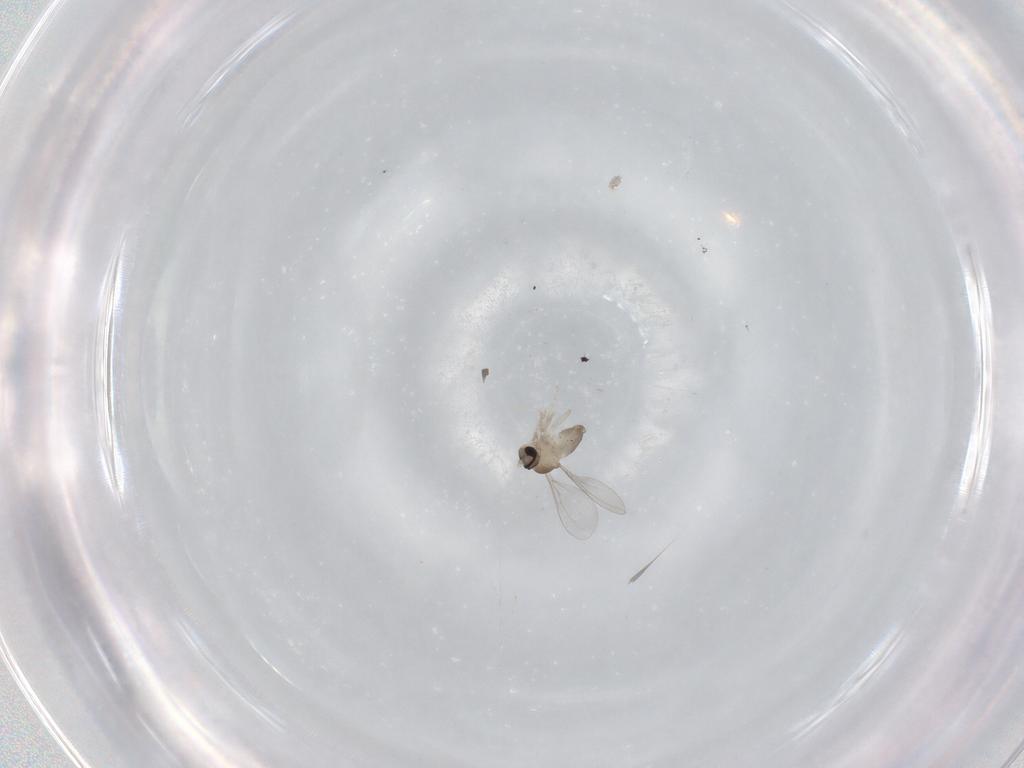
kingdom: Animalia
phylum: Arthropoda
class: Insecta
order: Diptera
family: Cecidomyiidae
